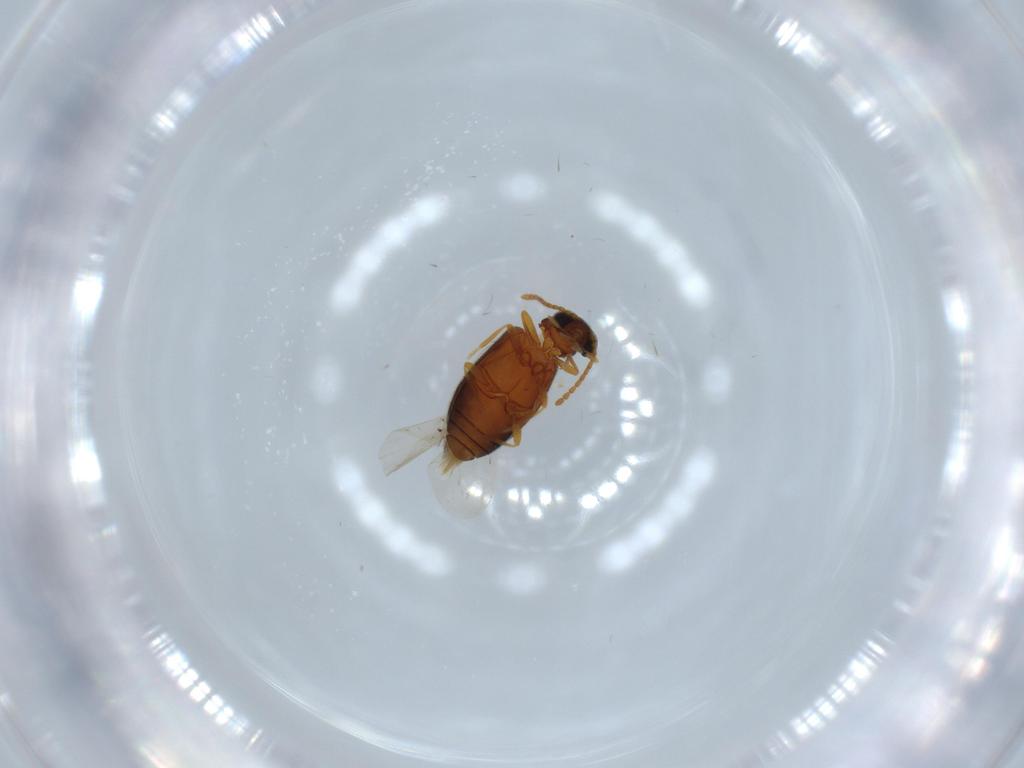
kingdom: Animalia
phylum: Arthropoda
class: Insecta
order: Coleoptera
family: Aderidae
